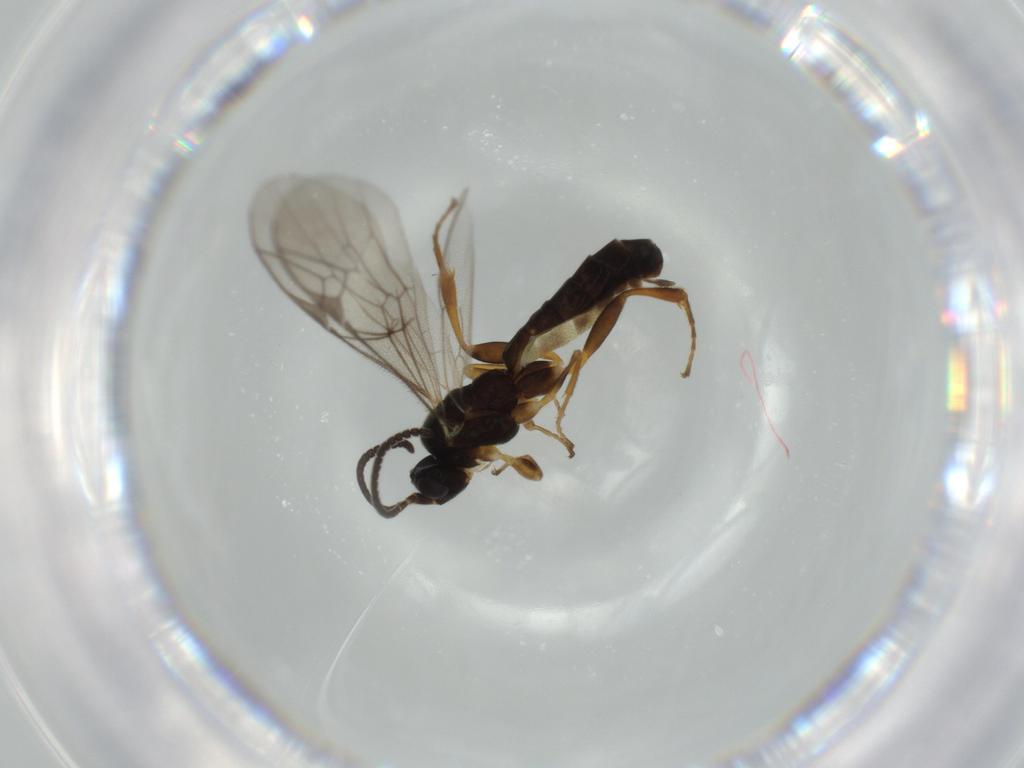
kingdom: Animalia
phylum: Arthropoda
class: Insecta
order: Hymenoptera
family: Ichneumonidae
